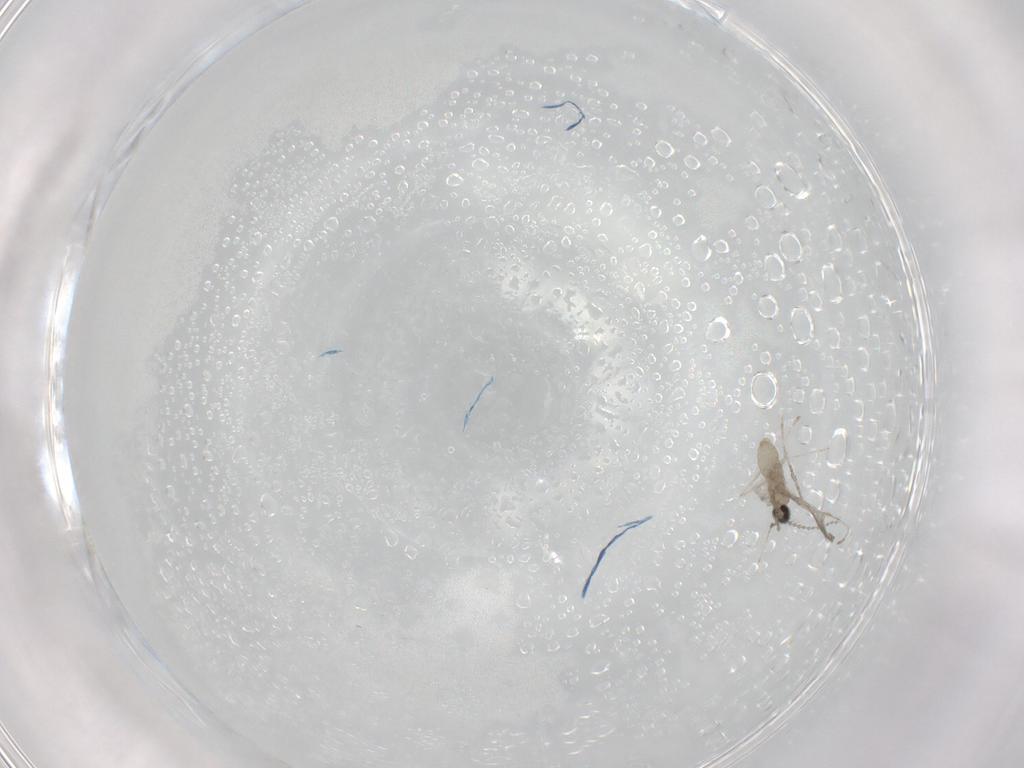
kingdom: Animalia
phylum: Arthropoda
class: Insecta
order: Diptera
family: Cecidomyiidae
